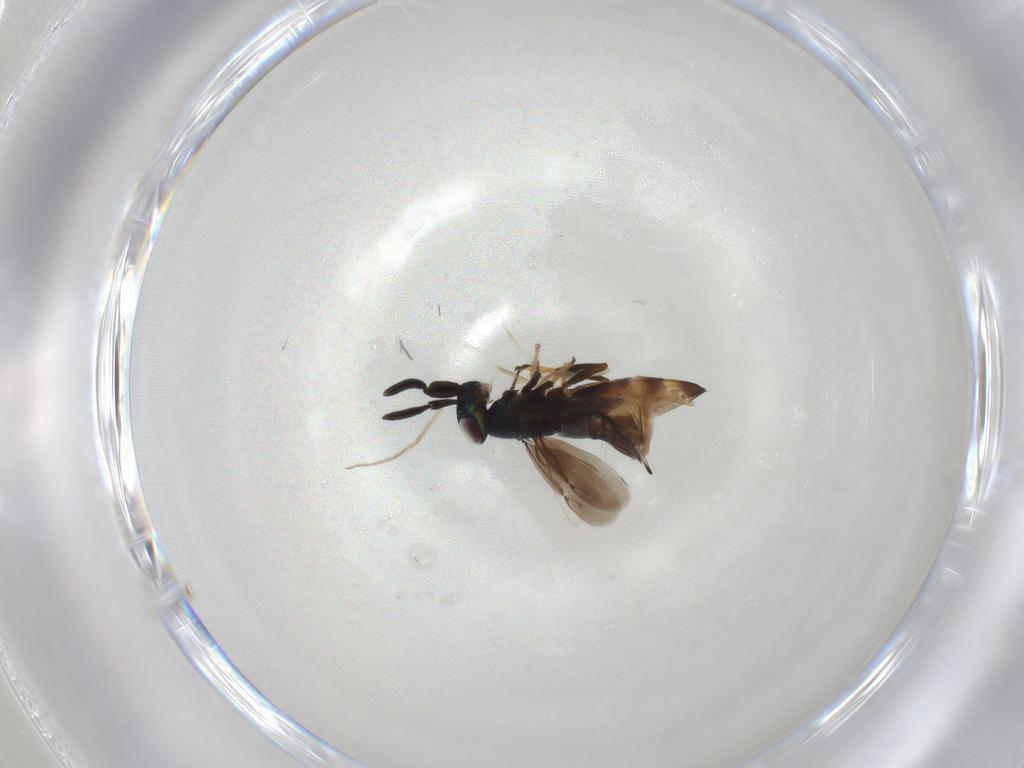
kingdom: Animalia
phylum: Arthropoda
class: Insecta
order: Hymenoptera
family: Encyrtidae
